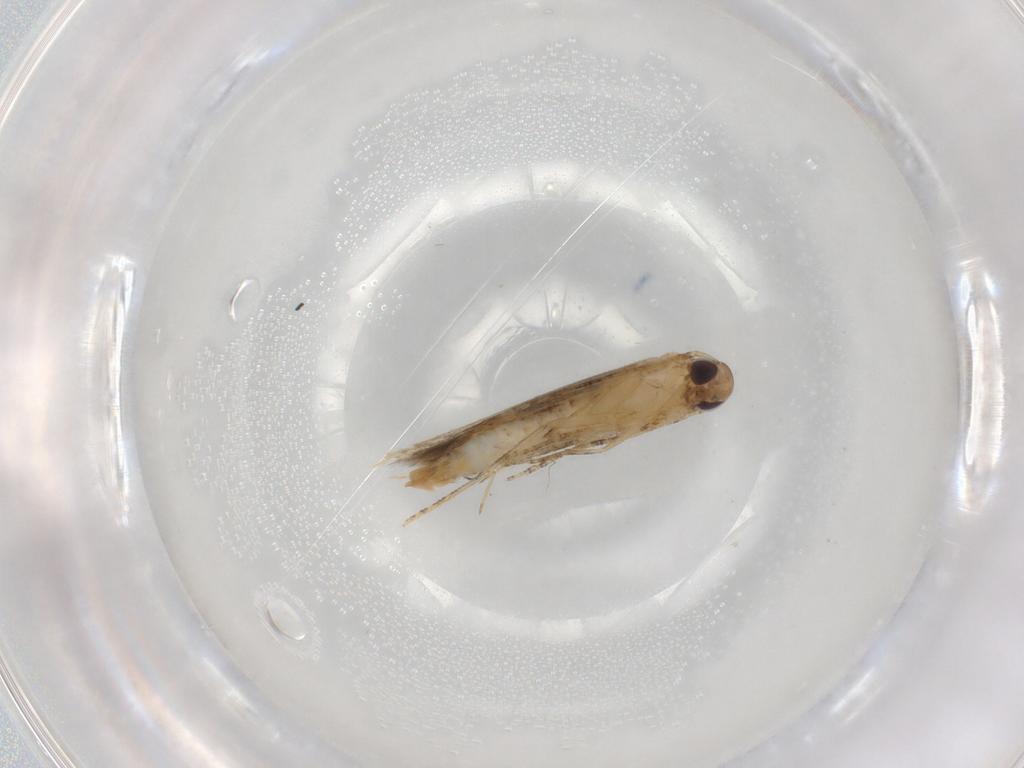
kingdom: Animalia
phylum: Arthropoda
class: Insecta
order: Lepidoptera
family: Crambidae
